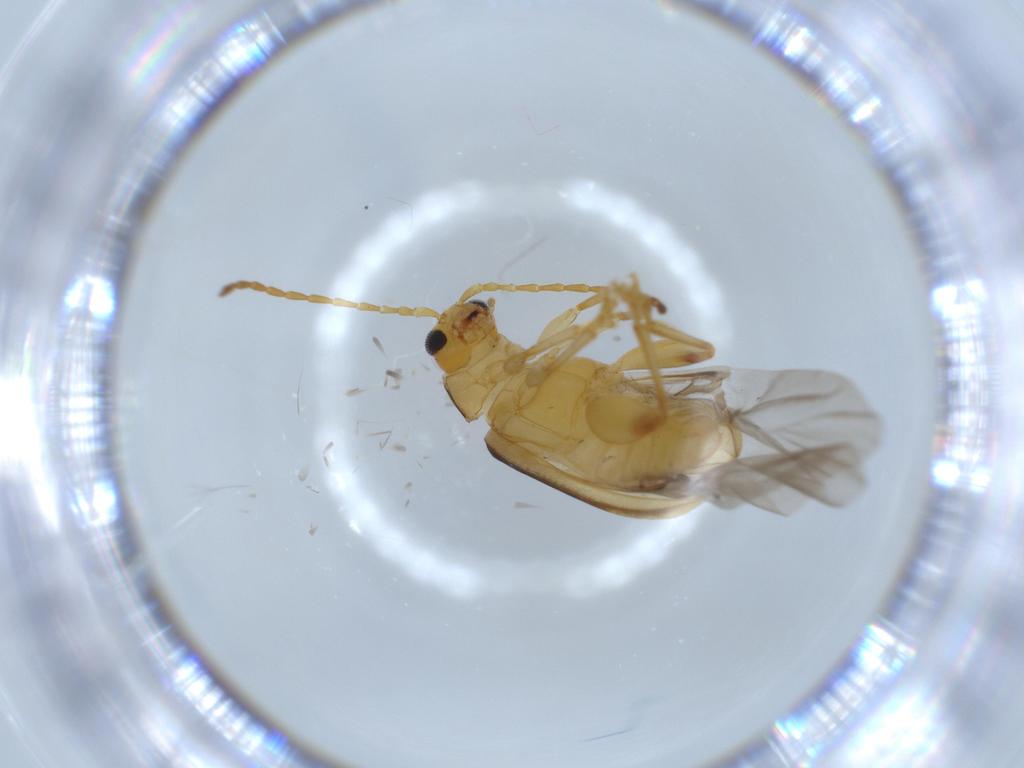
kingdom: Animalia
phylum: Arthropoda
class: Insecta
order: Coleoptera
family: Chrysomelidae
